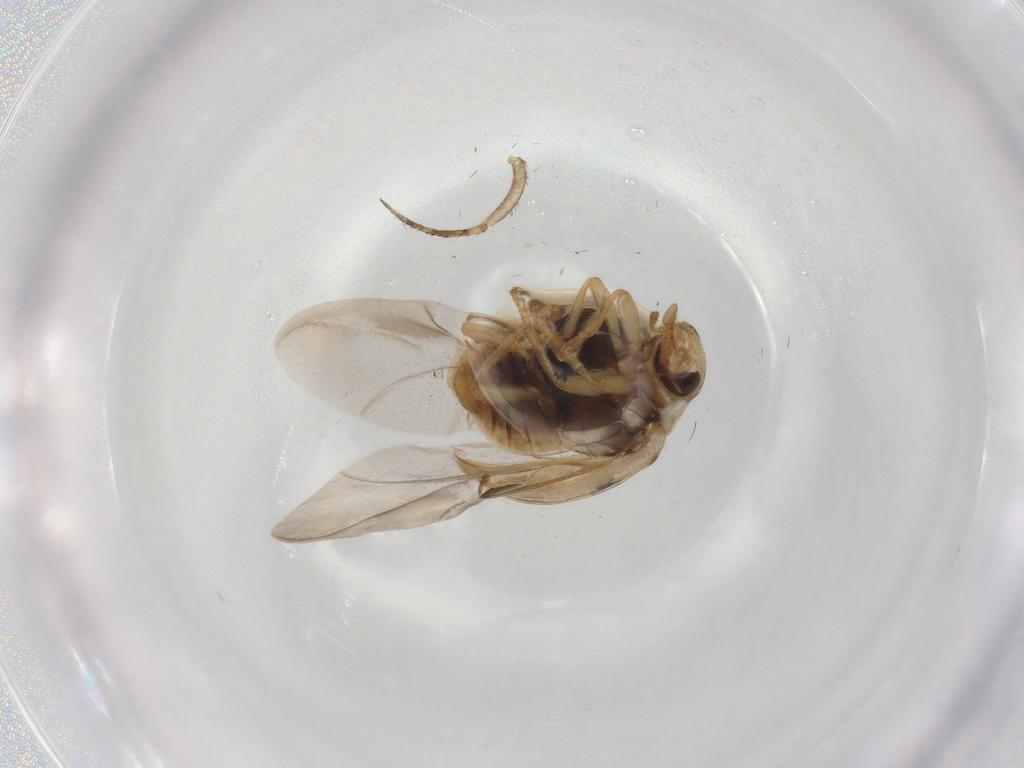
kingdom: Animalia
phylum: Arthropoda
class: Insecta
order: Coleoptera
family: Coccinellidae
